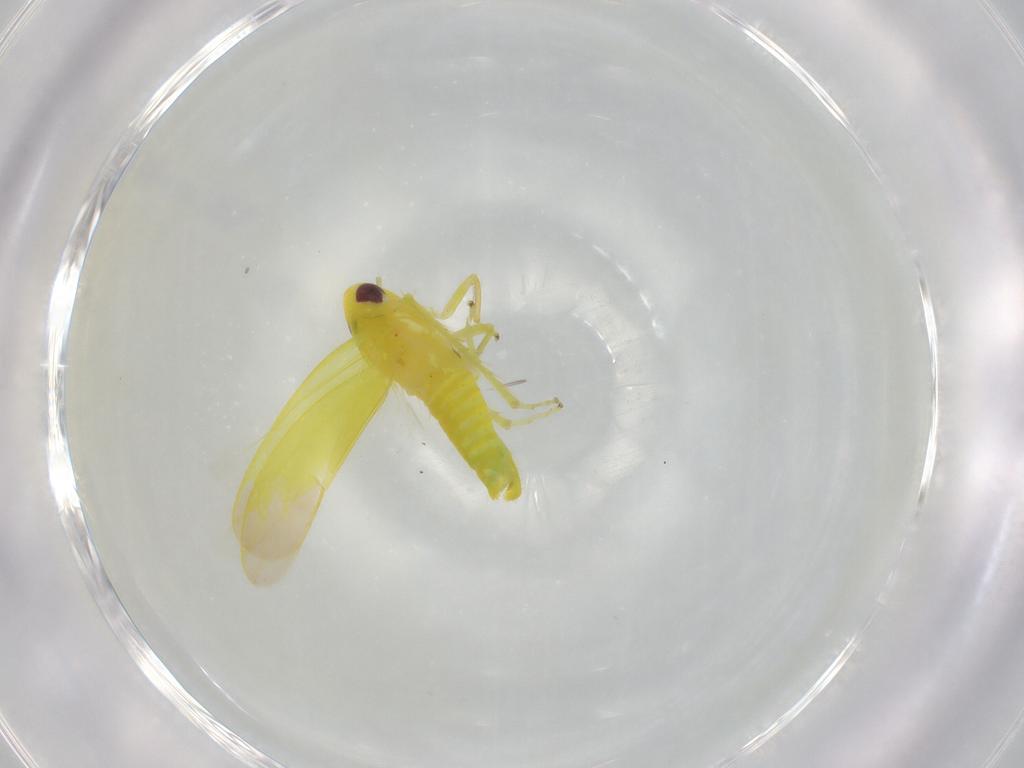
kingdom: Animalia
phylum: Arthropoda
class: Insecta
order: Hemiptera
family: Cicadellidae
